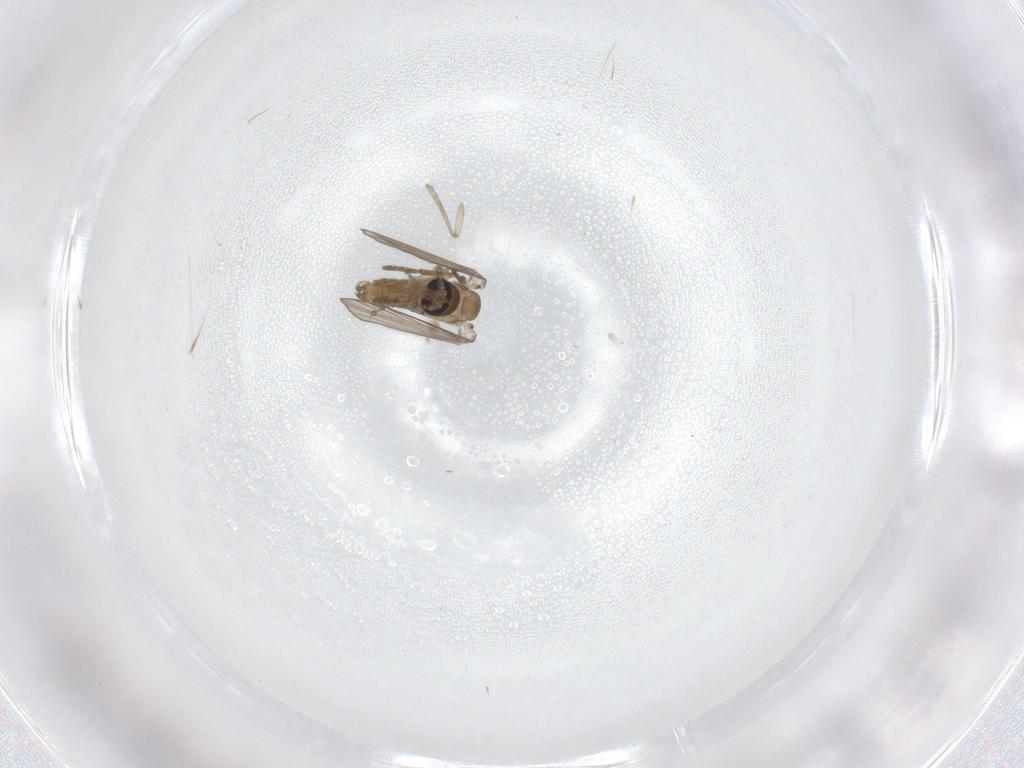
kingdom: Animalia
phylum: Arthropoda
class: Insecta
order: Diptera
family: Psychodidae
